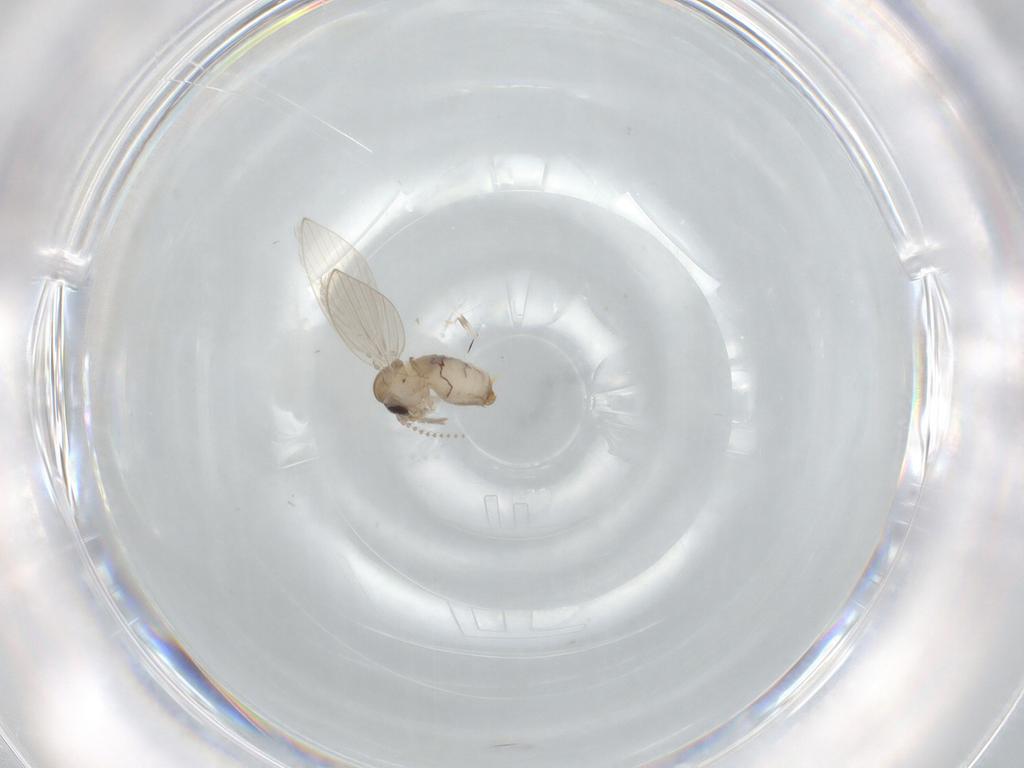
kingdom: Animalia
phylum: Arthropoda
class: Insecta
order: Diptera
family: Psychodidae
